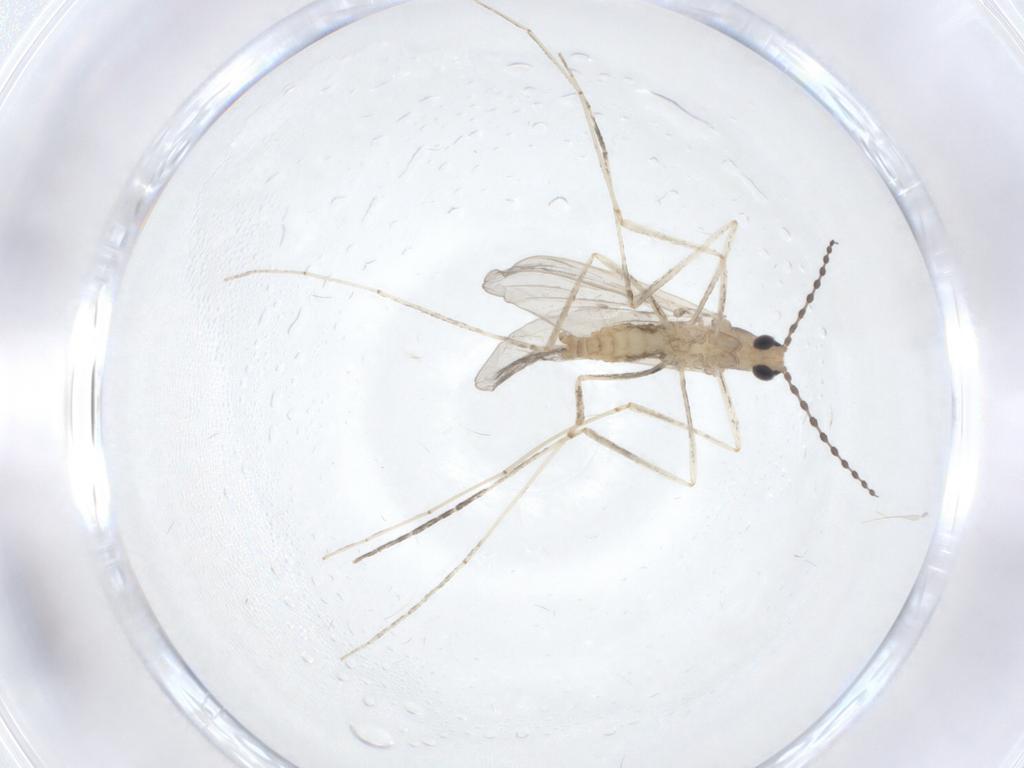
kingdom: Animalia
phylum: Arthropoda
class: Insecta
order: Diptera
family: Cecidomyiidae
